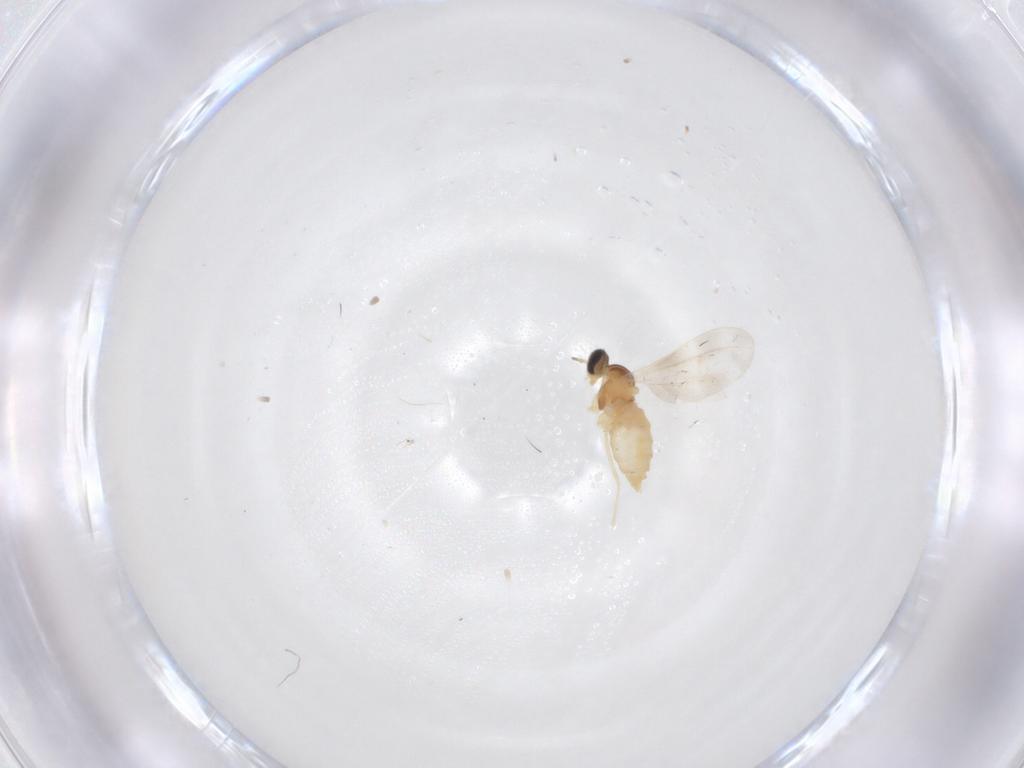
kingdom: Animalia
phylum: Arthropoda
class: Insecta
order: Diptera
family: Cecidomyiidae
